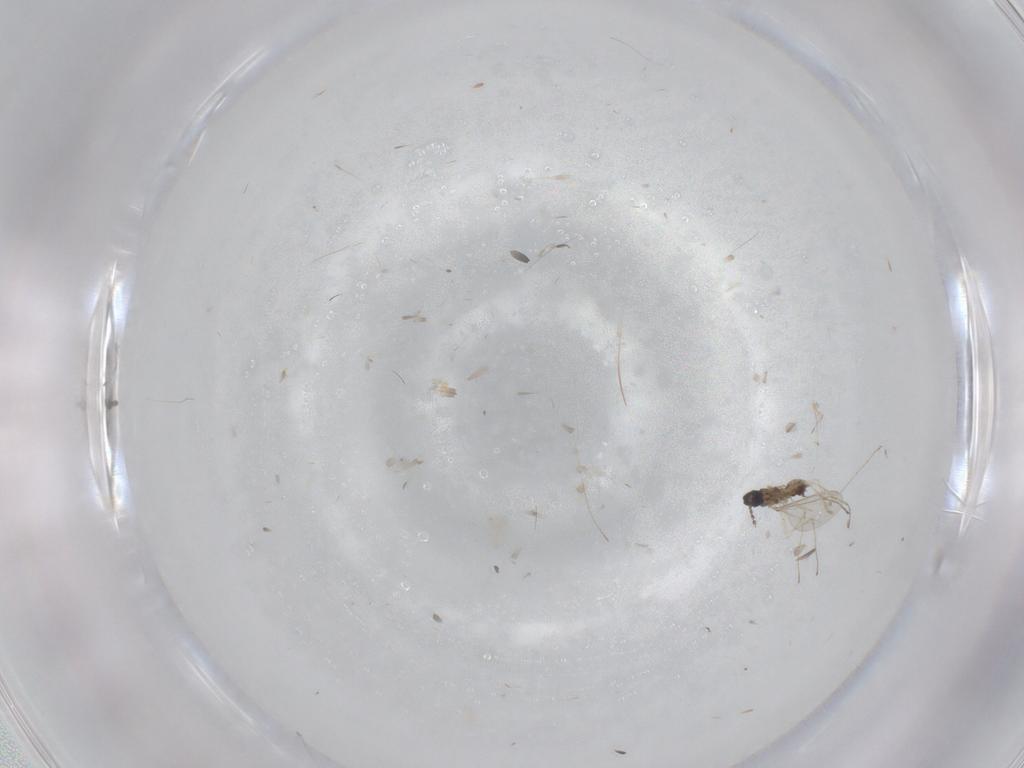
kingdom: Animalia
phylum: Arthropoda
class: Insecta
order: Diptera
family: Cecidomyiidae
